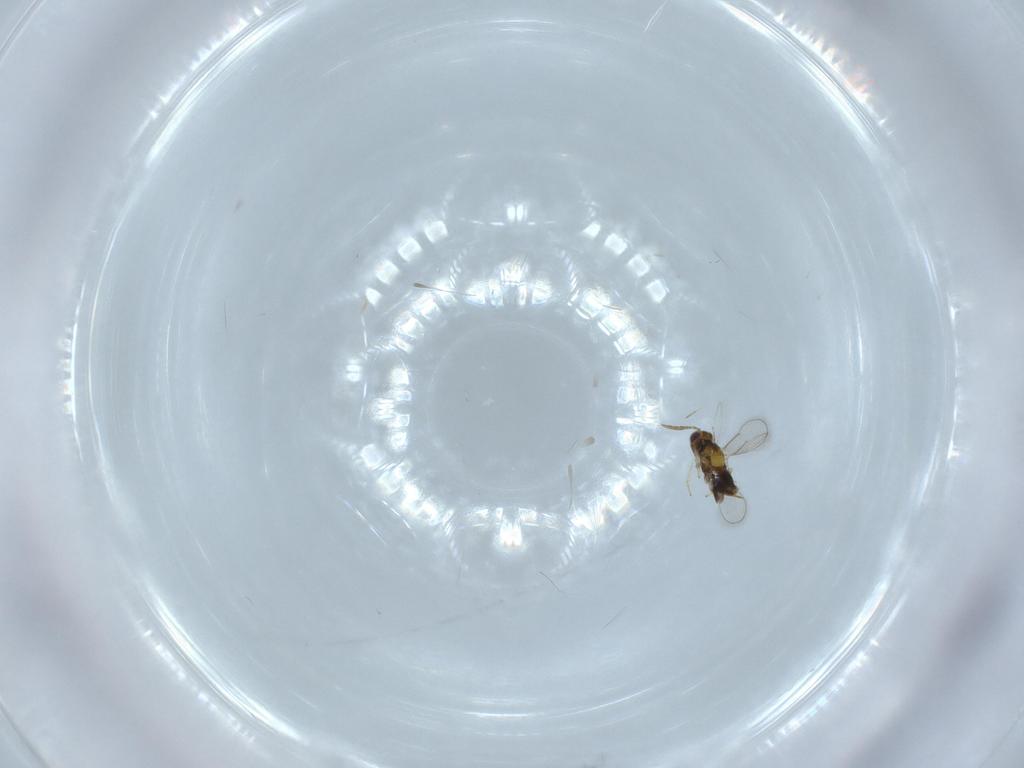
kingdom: Animalia
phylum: Arthropoda
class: Insecta
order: Hymenoptera
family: Aphelinidae
